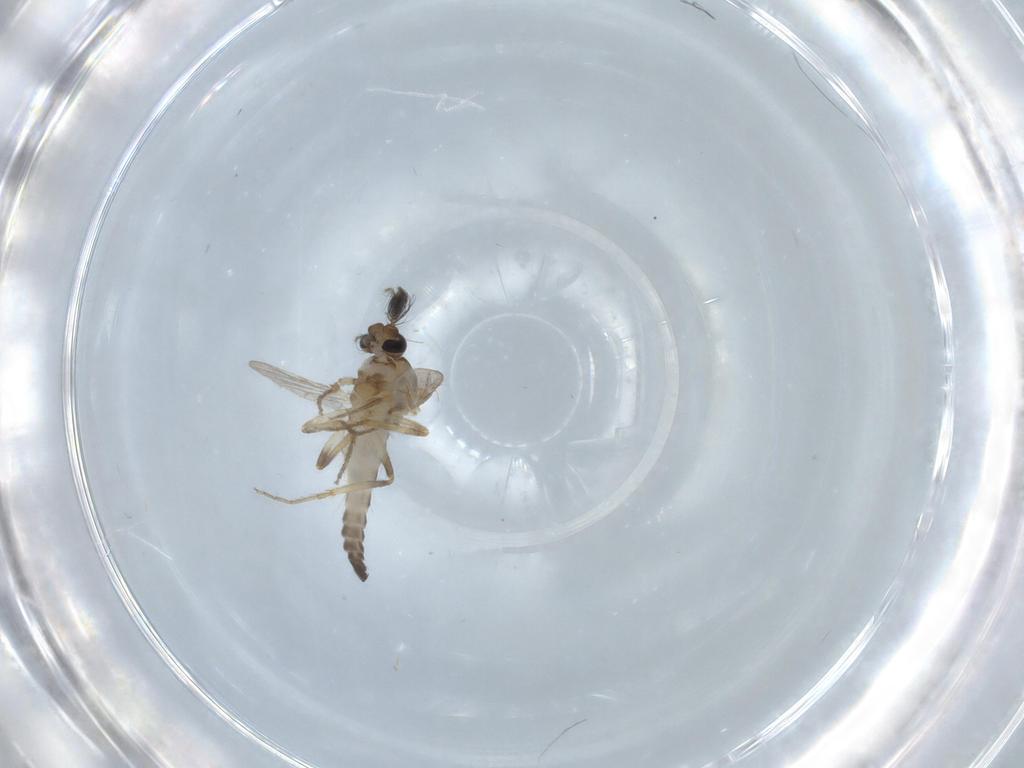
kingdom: Animalia
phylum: Arthropoda
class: Insecta
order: Diptera
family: Ceratopogonidae
